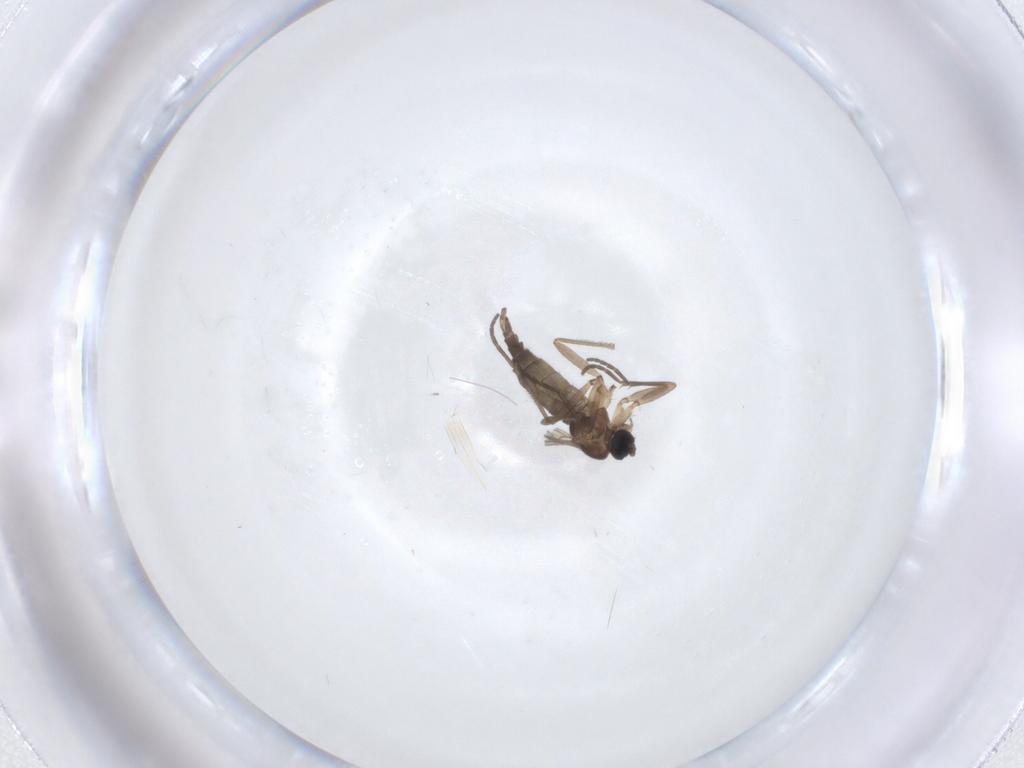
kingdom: Animalia
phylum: Arthropoda
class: Insecta
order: Diptera
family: Sciaridae
